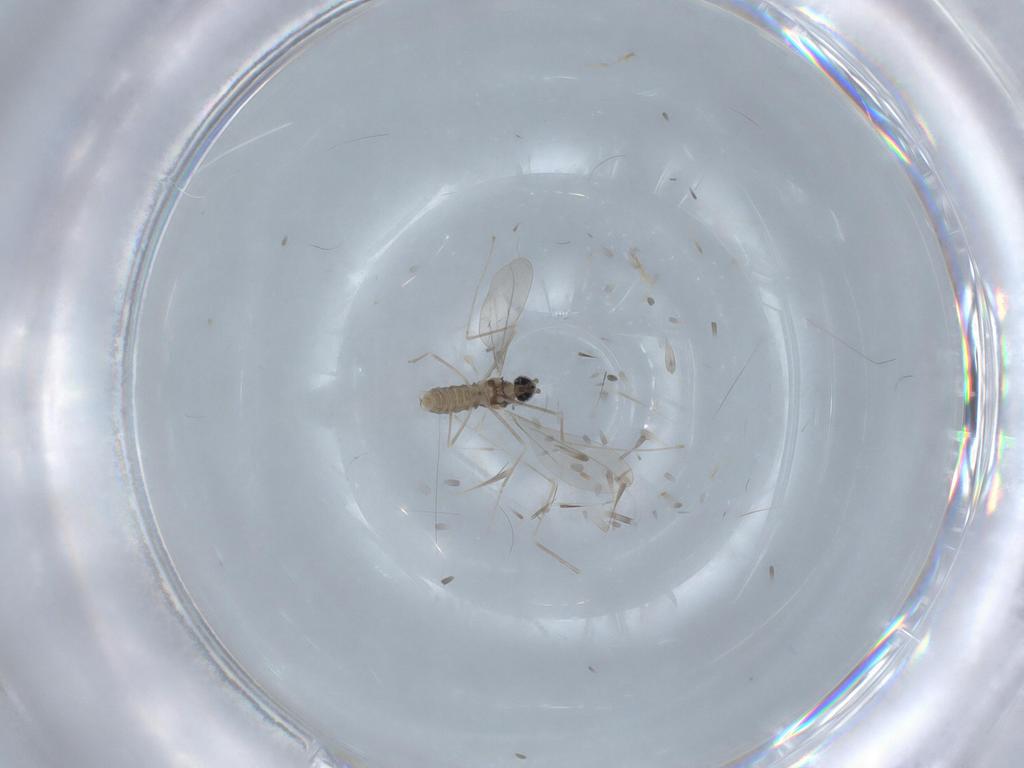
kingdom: Animalia
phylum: Arthropoda
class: Insecta
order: Diptera
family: Cecidomyiidae
